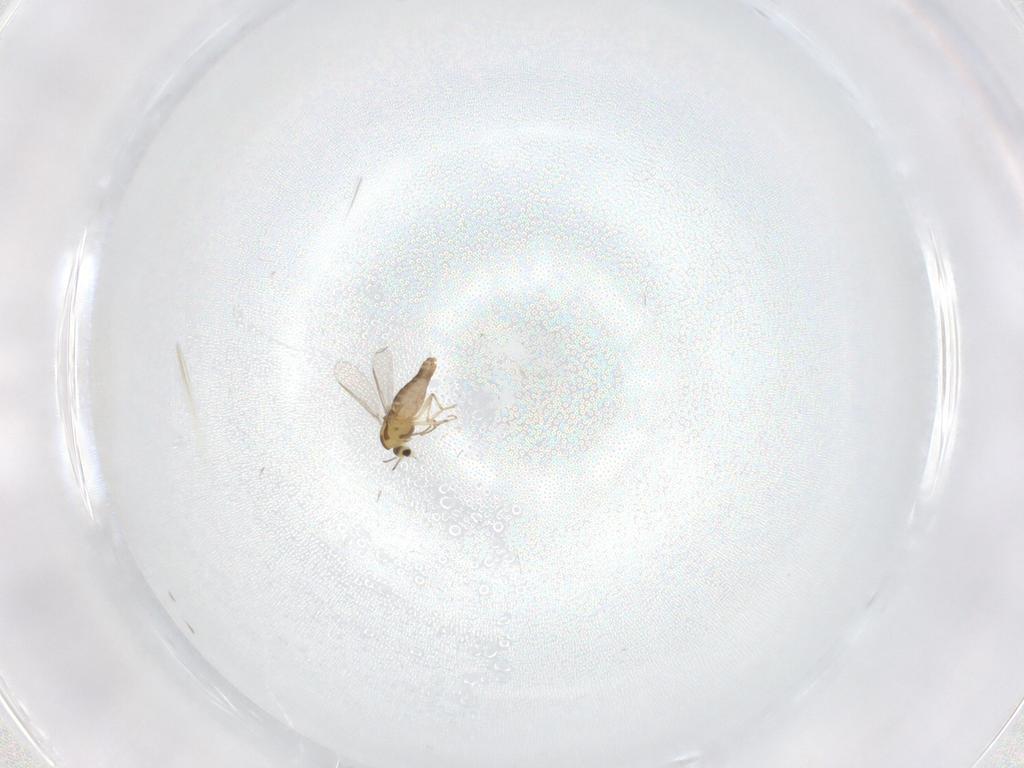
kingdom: Animalia
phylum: Arthropoda
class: Insecta
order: Diptera
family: Chironomidae
